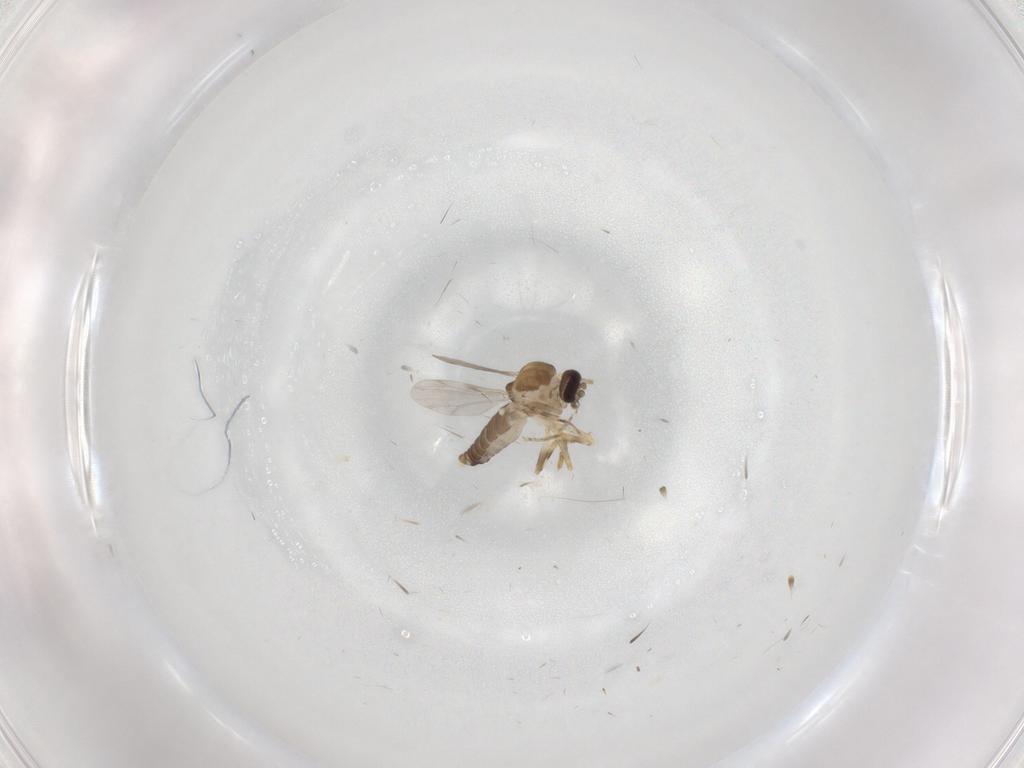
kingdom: Animalia
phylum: Arthropoda
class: Insecta
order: Diptera
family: Ceratopogonidae
